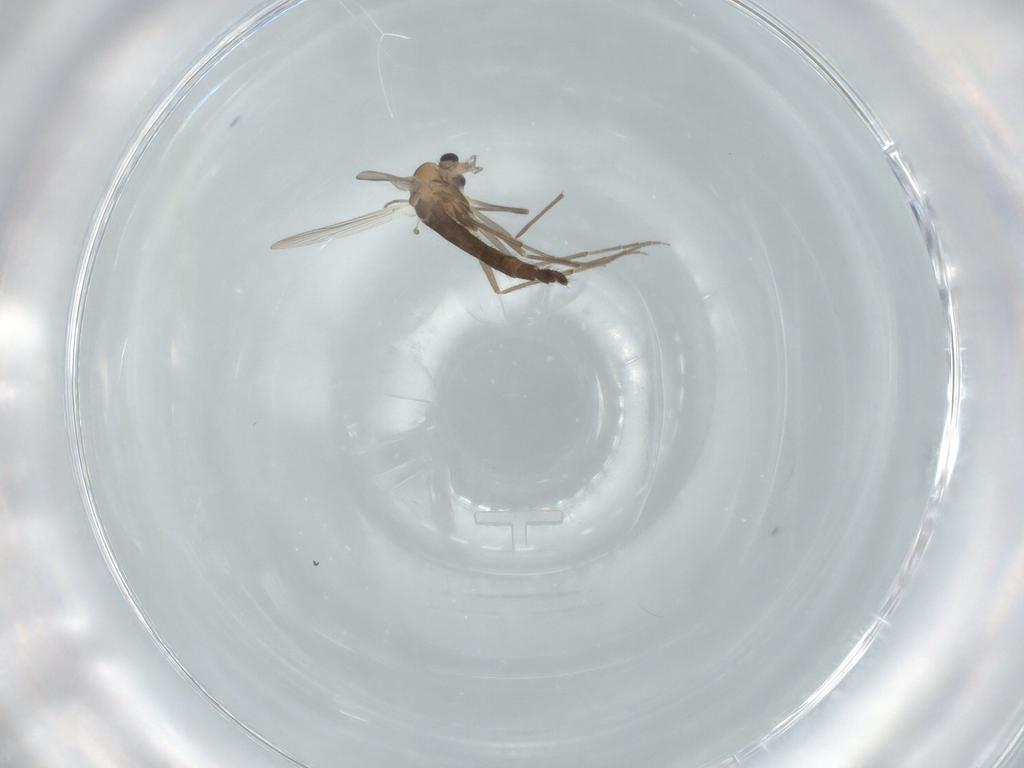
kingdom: Animalia
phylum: Arthropoda
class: Insecta
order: Diptera
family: Chironomidae
